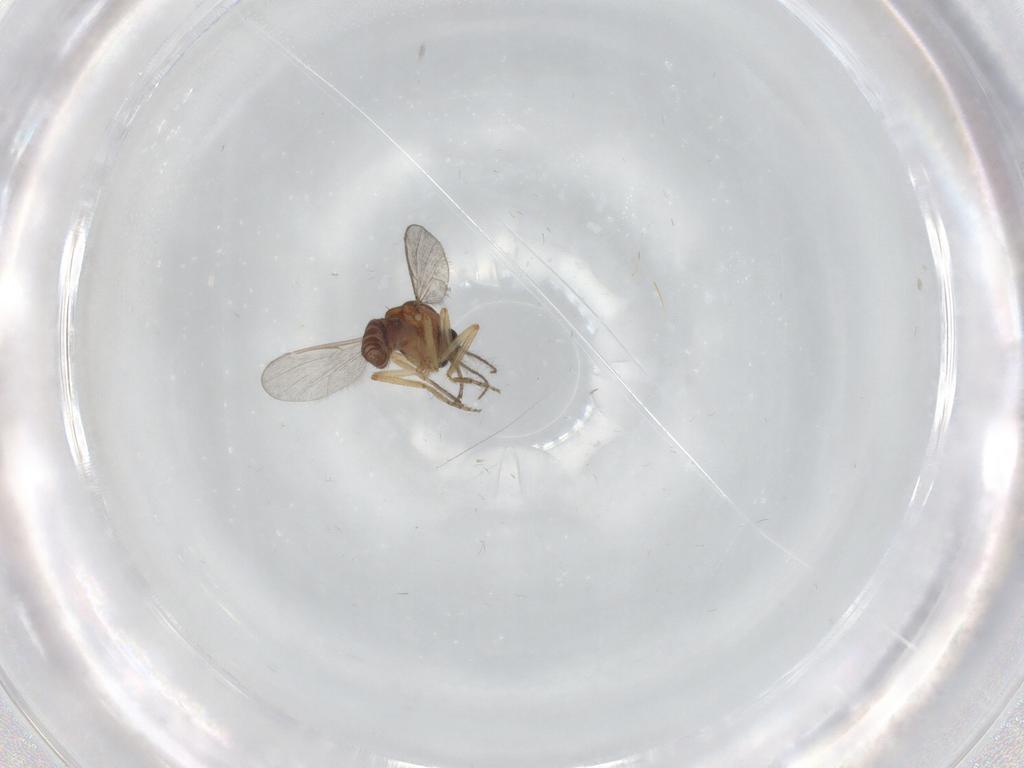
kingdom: Animalia
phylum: Arthropoda
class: Insecta
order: Diptera
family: Ceratopogonidae
